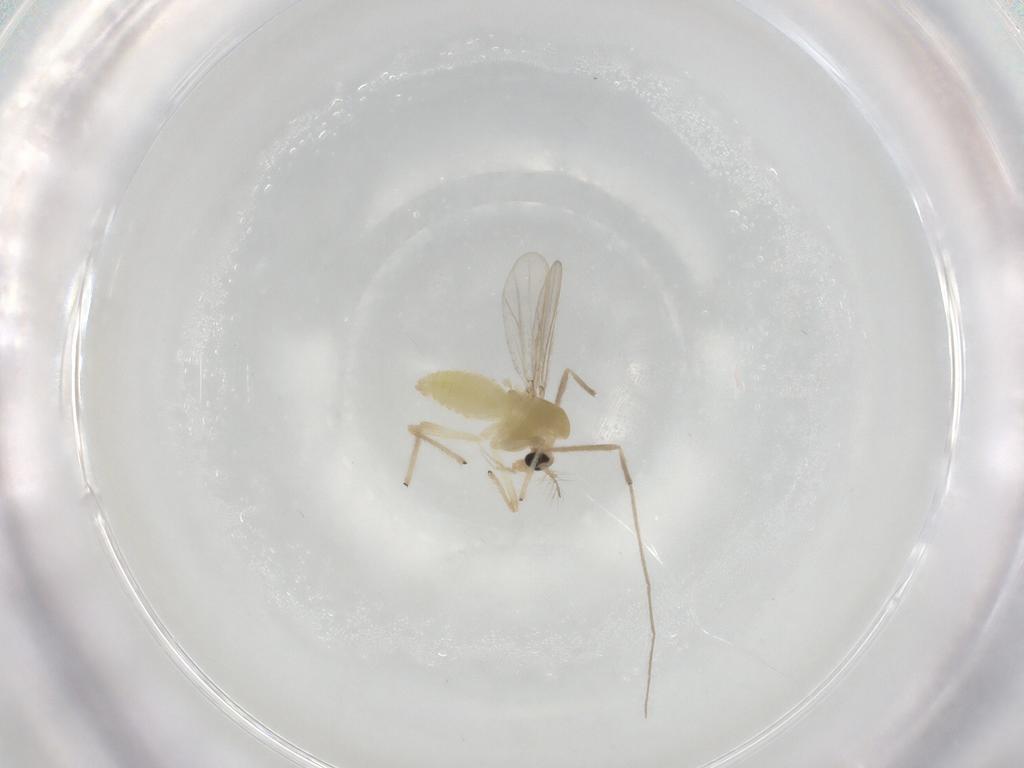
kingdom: Animalia
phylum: Arthropoda
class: Insecta
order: Diptera
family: Chironomidae
